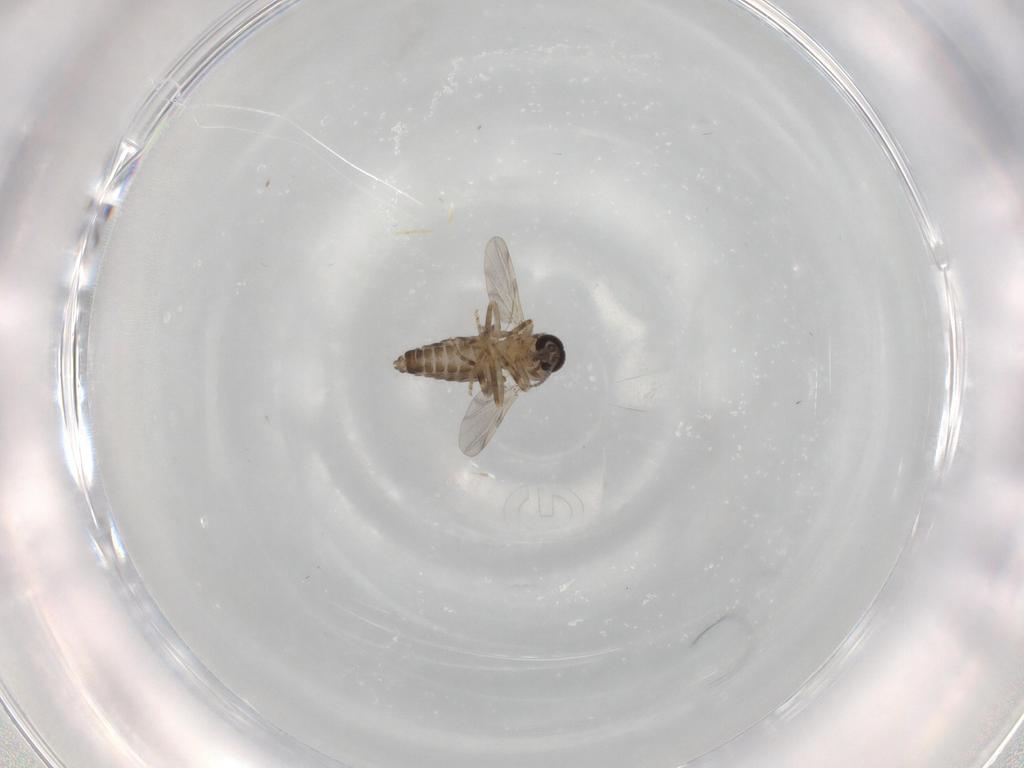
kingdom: Animalia
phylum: Arthropoda
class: Insecta
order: Diptera
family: Ceratopogonidae
